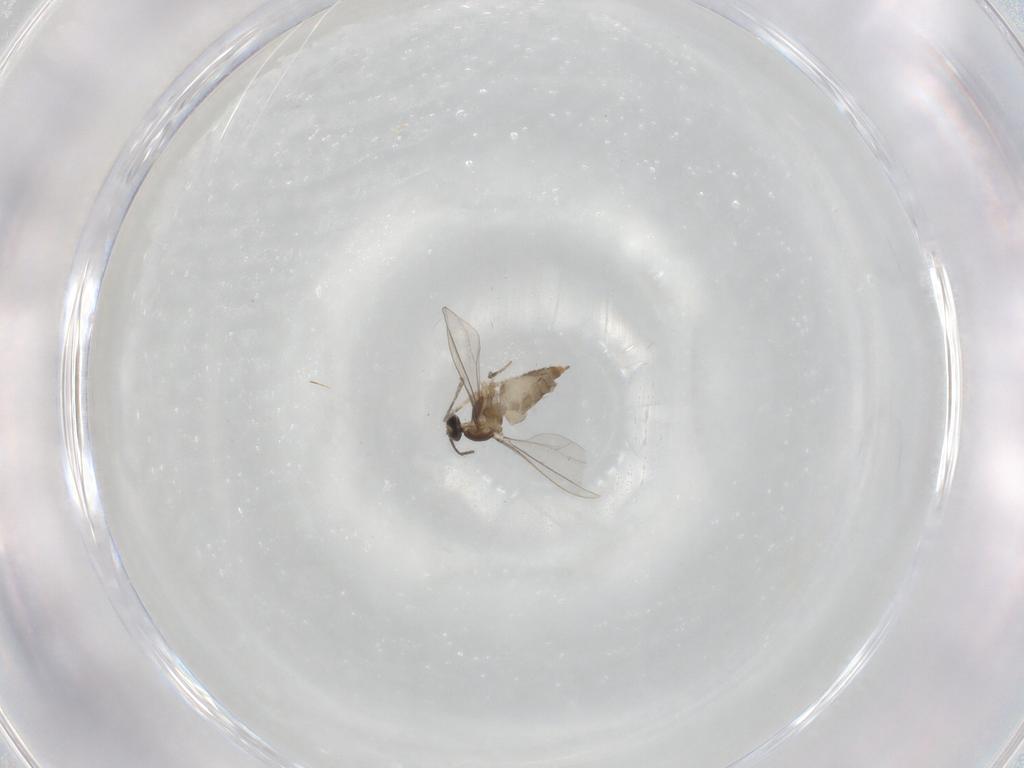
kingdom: Animalia
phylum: Arthropoda
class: Insecta
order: Diptera
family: Cecidomyiidae
